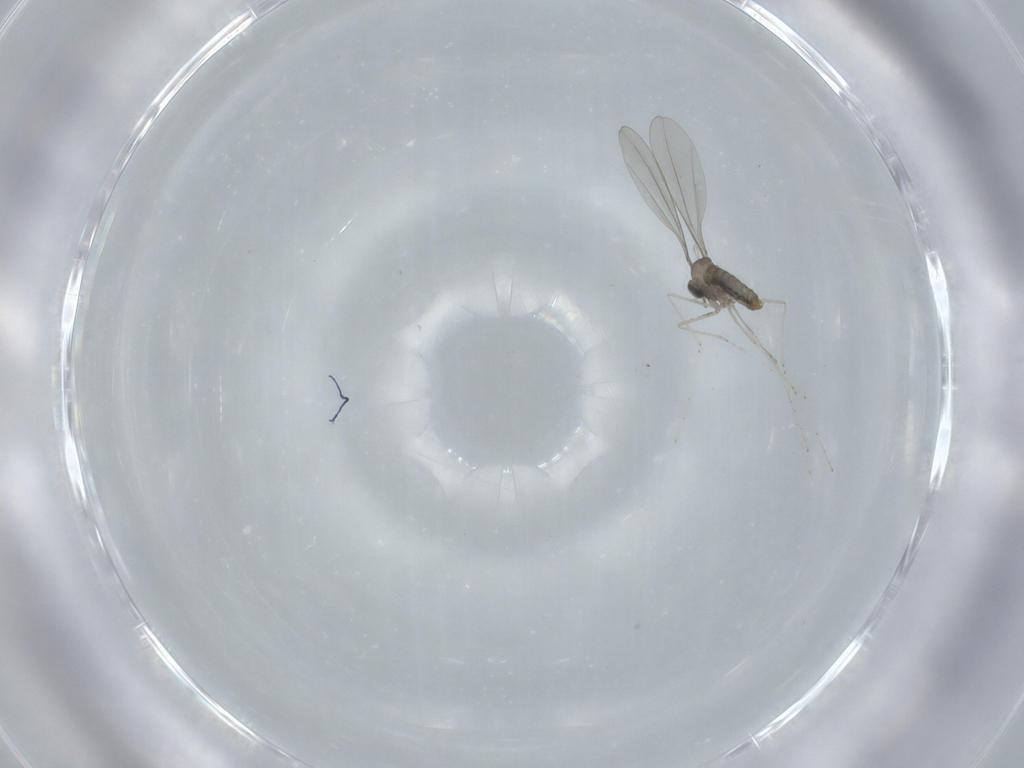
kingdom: Animalia
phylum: Arthropoda
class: Insecta
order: Diptera
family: Cecidomyiidae
